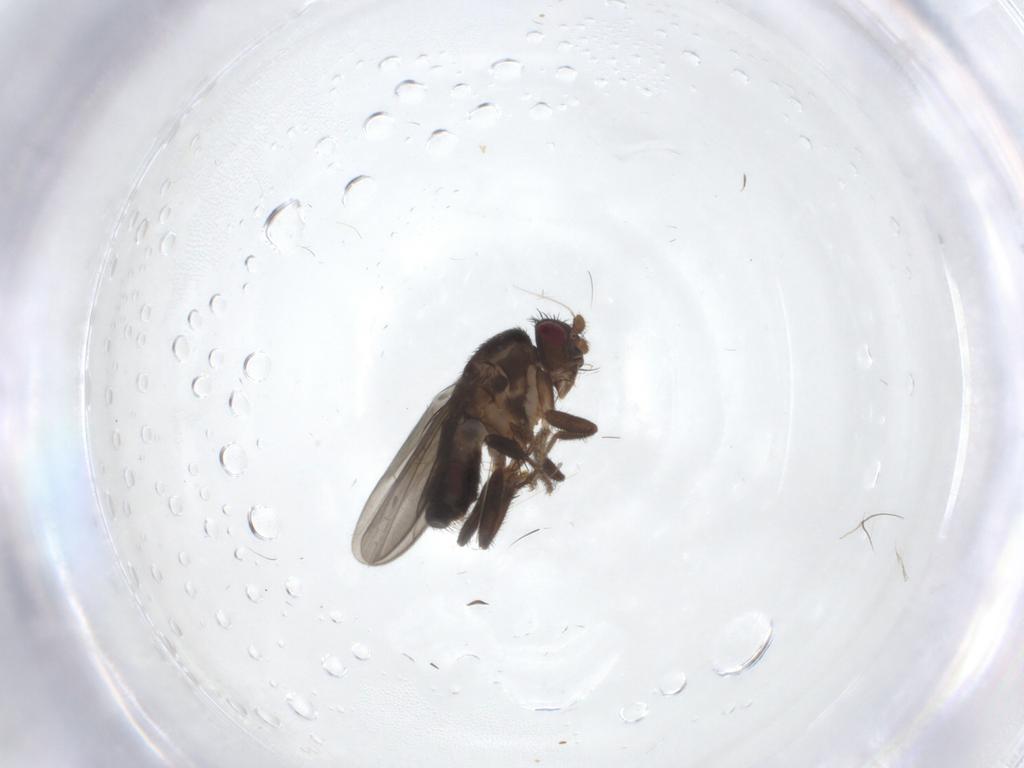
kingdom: Animalia
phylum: Arthropoda
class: Insecta
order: Diptera
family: Sphaeroceridae
